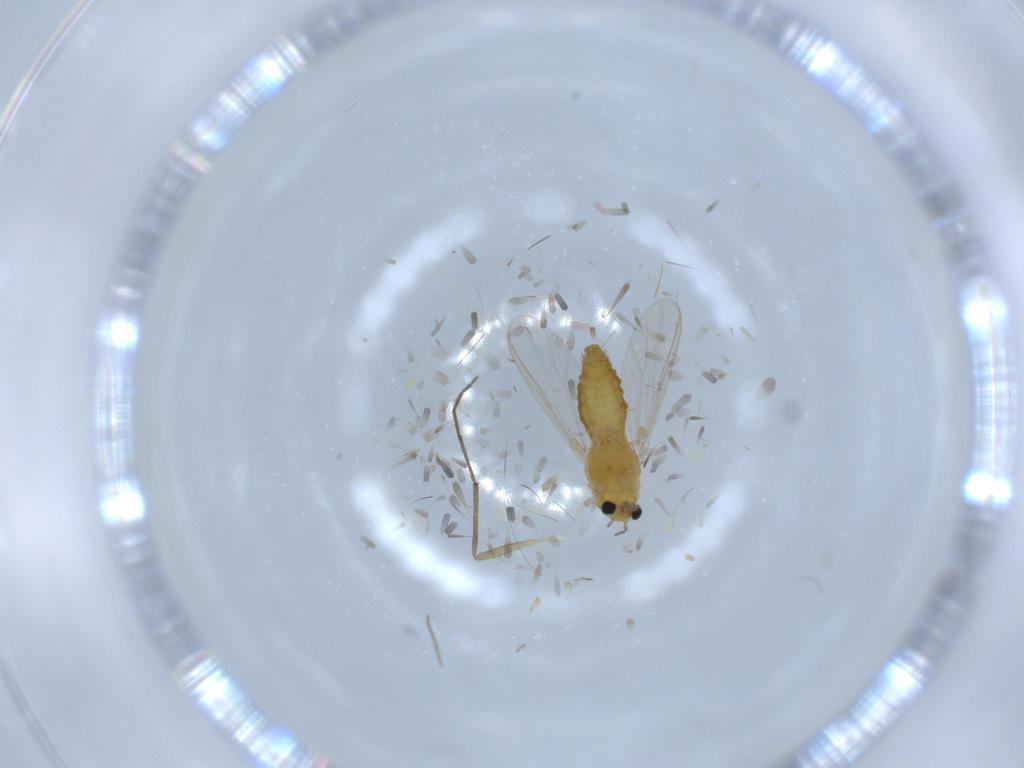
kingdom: Animalia
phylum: Arthropoda
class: Insecta
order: Diptera
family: Chironomidae
